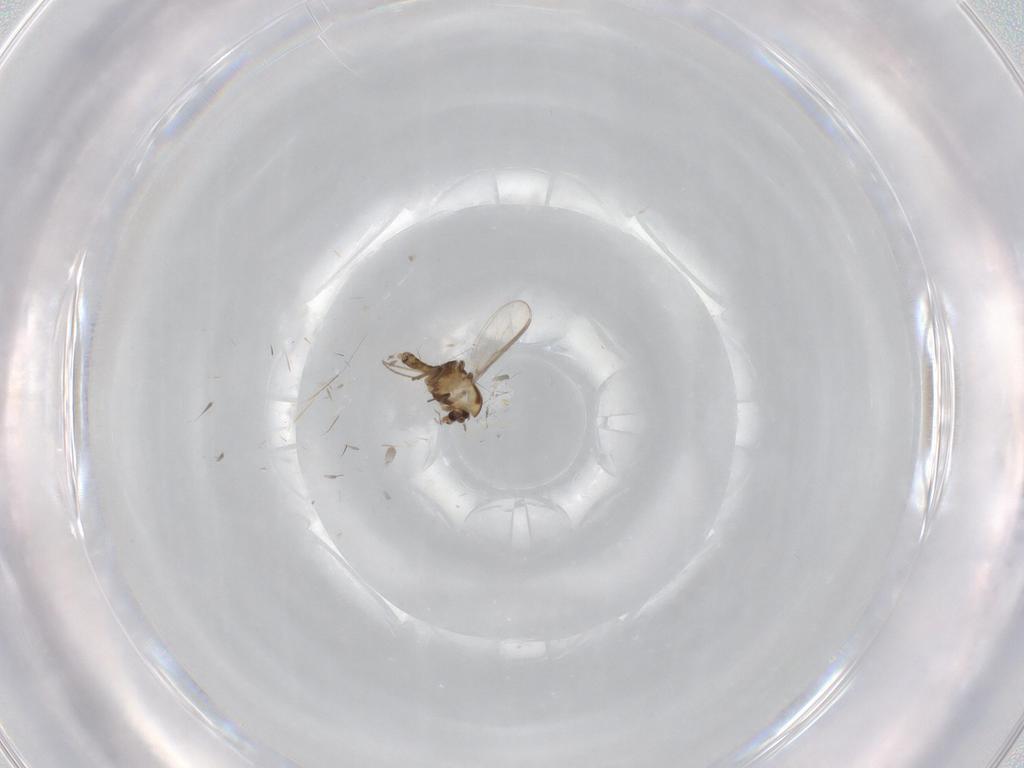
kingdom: Animalia
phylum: Arthropoda
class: Insecta
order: Diptera
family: Chironomidae
